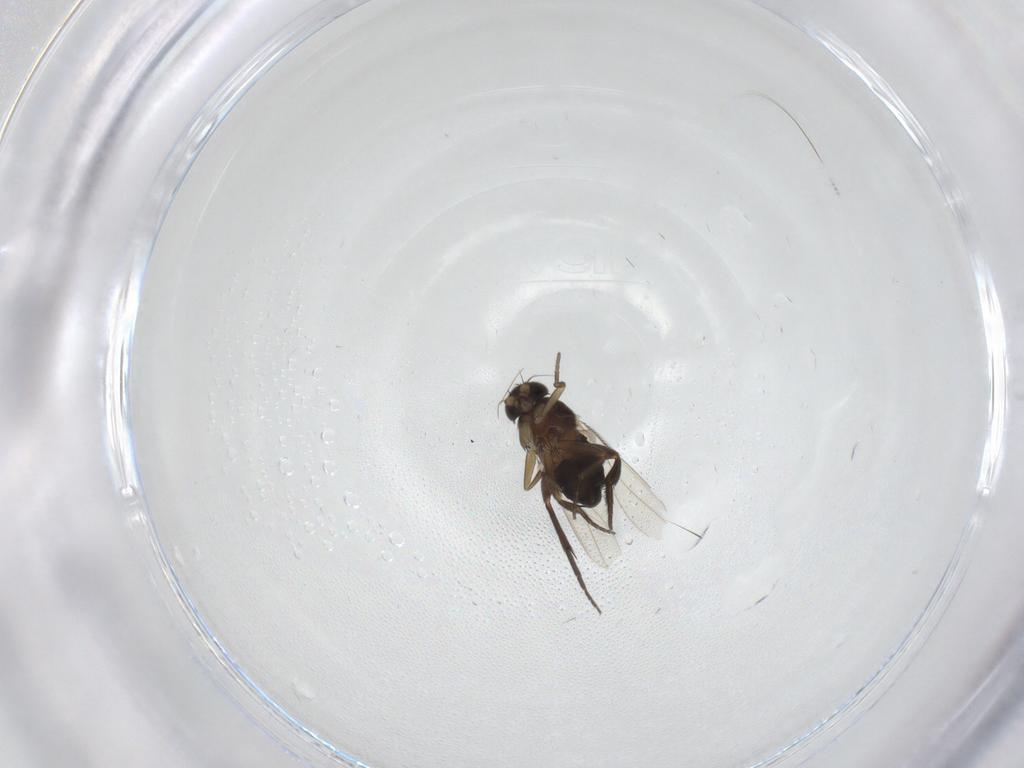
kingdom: Animalia
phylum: Arthropoda
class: Insecta
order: Diptera
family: Phoridae
